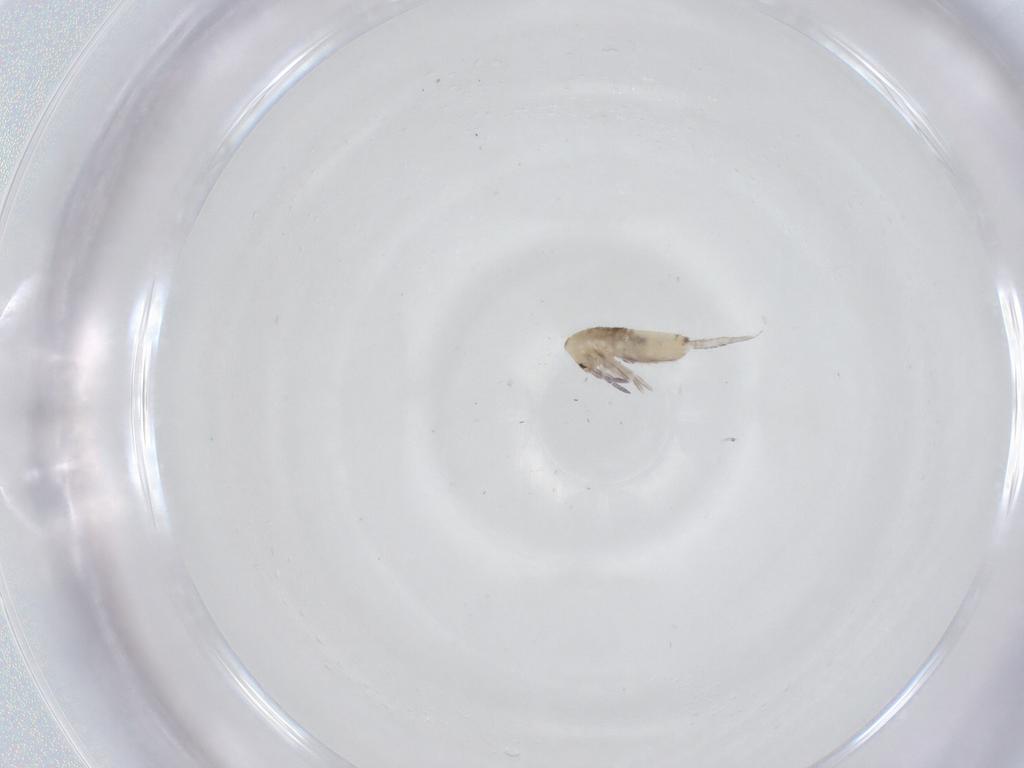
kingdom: Animalia
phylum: Arthropoda
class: Collembola
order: Entomobryomorpha
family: Entomobryidae
